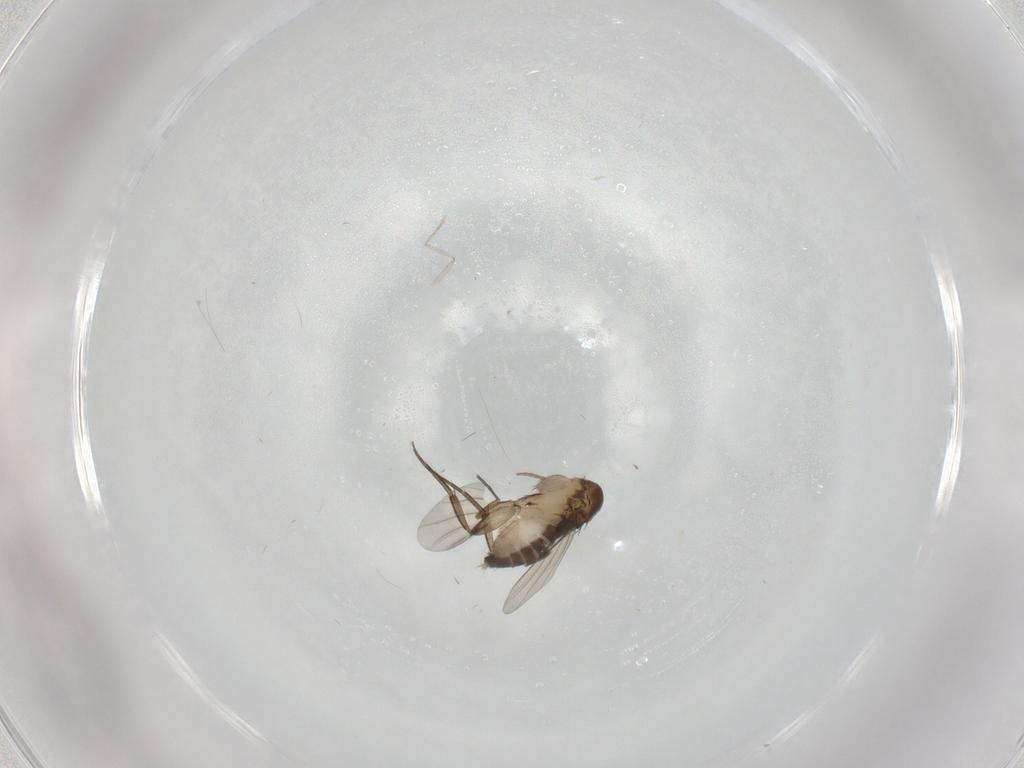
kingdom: Animalia
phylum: Arthropoda
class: Insecta
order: Diptera
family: Phoridae
